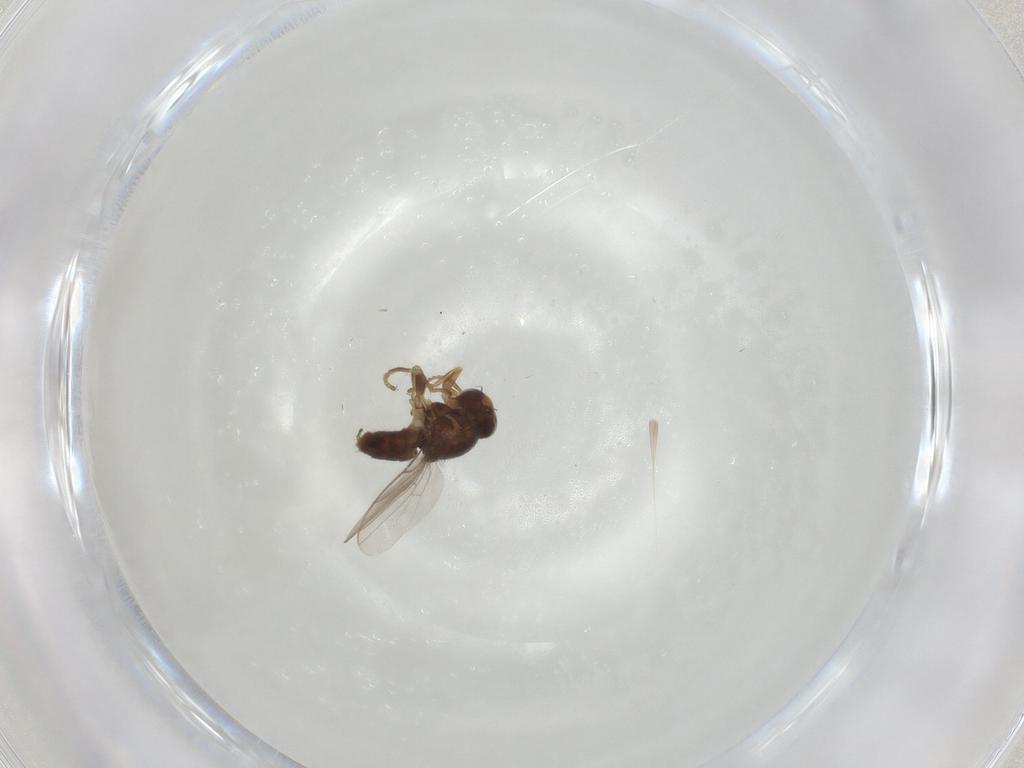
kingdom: Animalia
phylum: Arthropoda
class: Insecta
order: Diptera
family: Chloropidae
